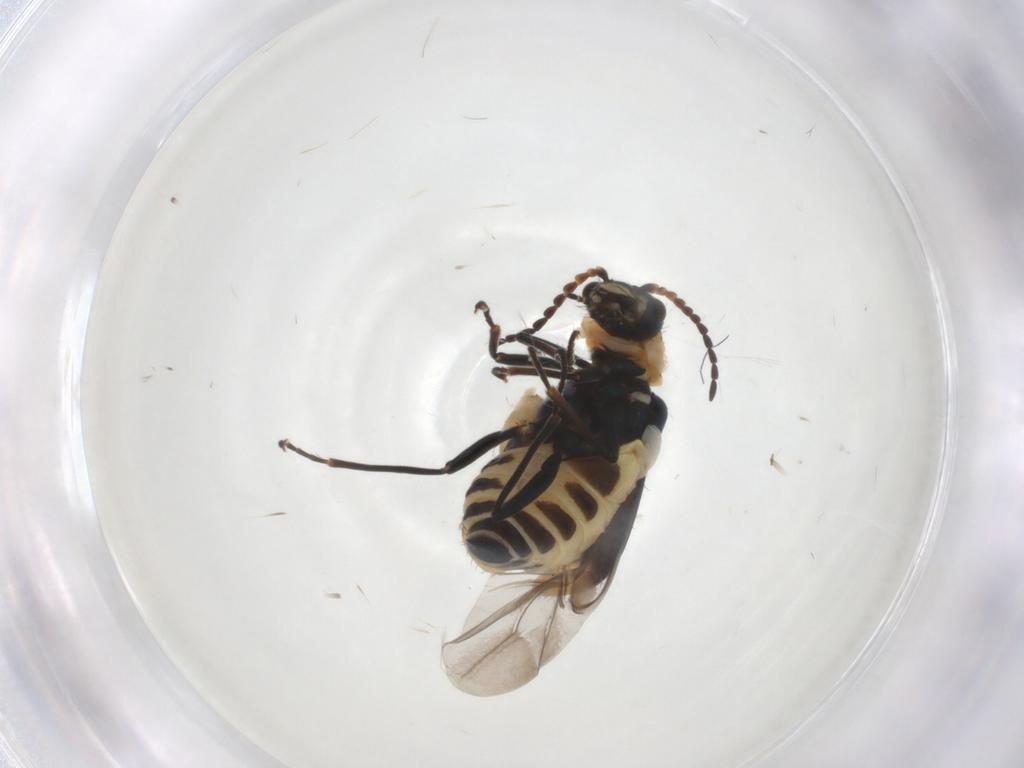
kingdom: Animalia
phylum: Arthropoda
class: Insecta
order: Coleoptera
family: Melyridae
